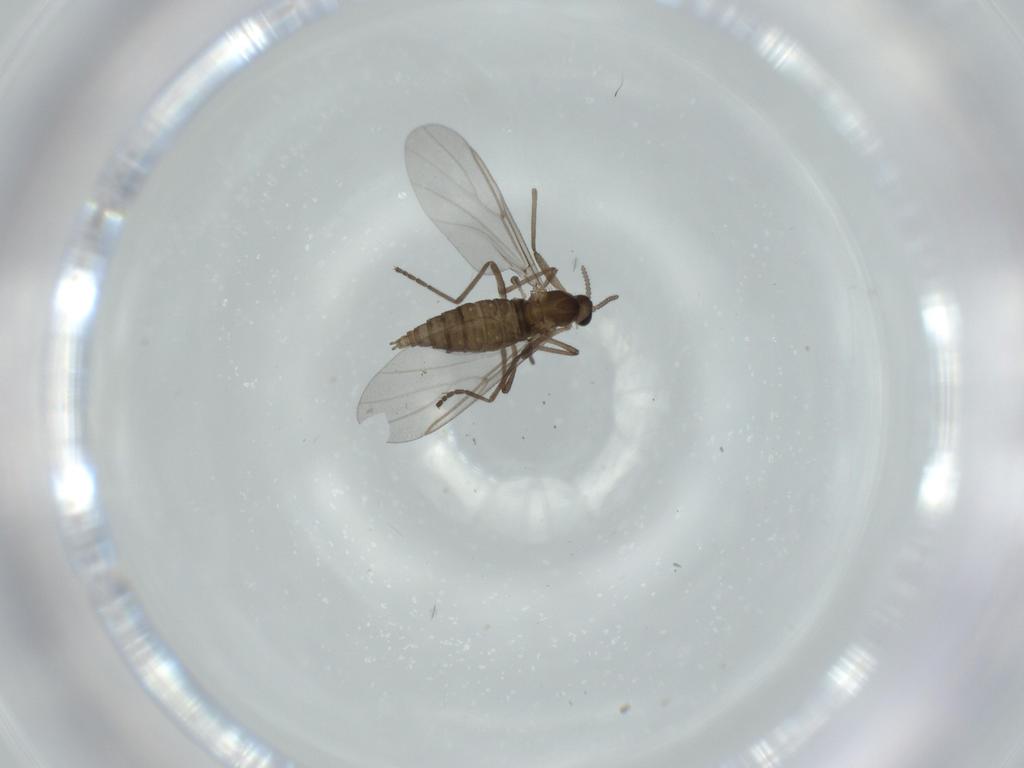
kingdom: Animalia
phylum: Arthropoda
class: Insecta
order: Diptera
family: Cecidomyiidae
